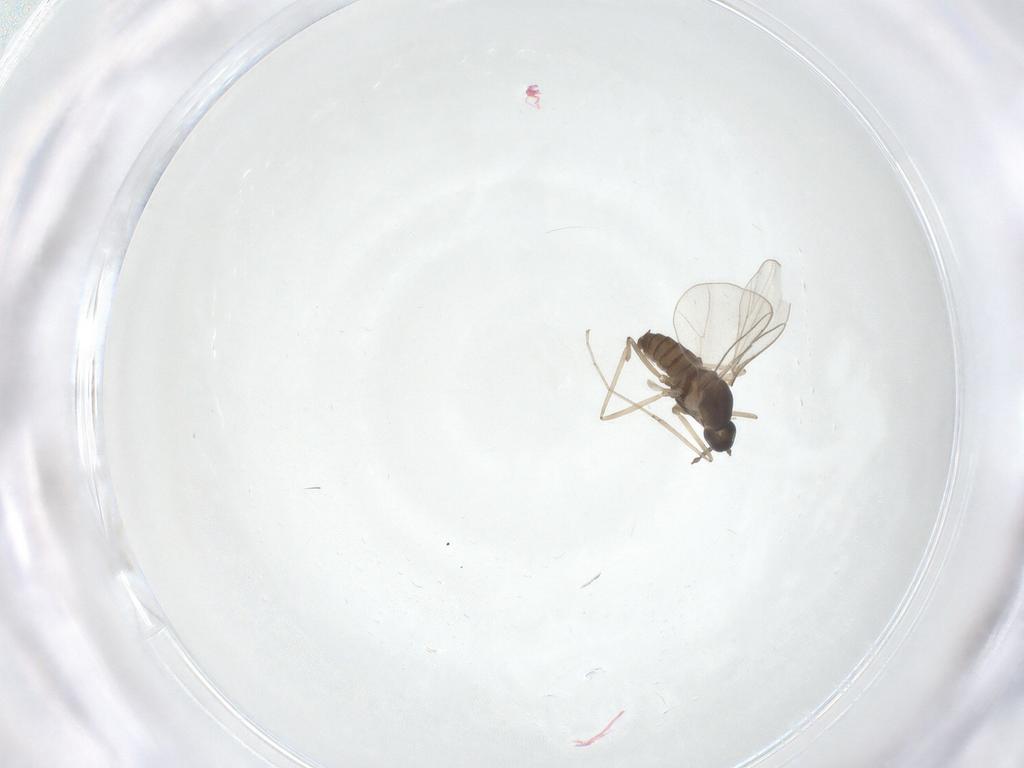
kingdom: Animalia
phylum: Arthropoda
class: Insecta
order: Diptera
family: Cecidomyiidae
